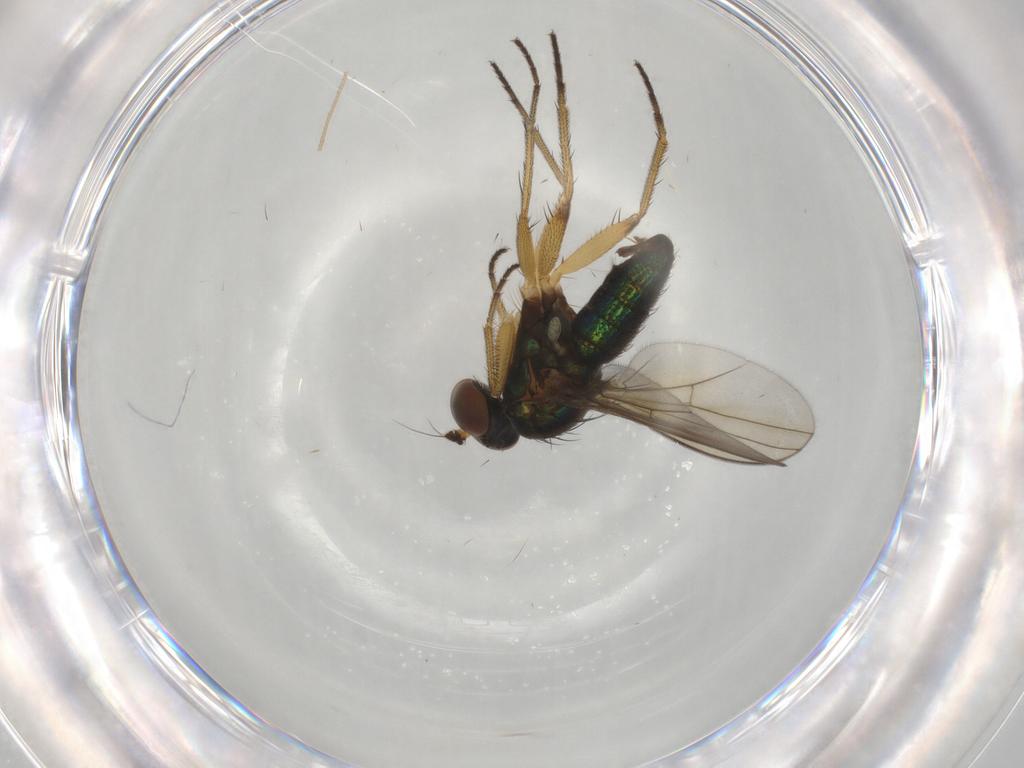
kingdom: Animalia
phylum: Arthropoda
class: Insecta
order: Diptera
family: Dolichopodidae
